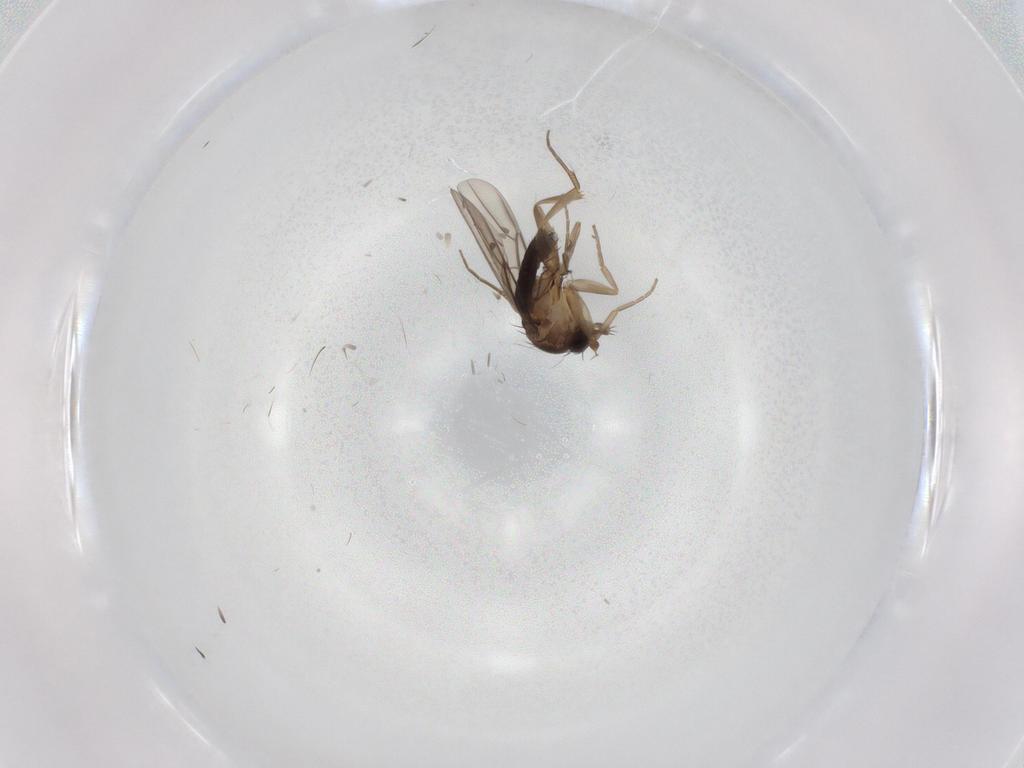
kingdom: Animalia
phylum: Arthropoda
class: Insecta
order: Diptera
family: Phoridae
